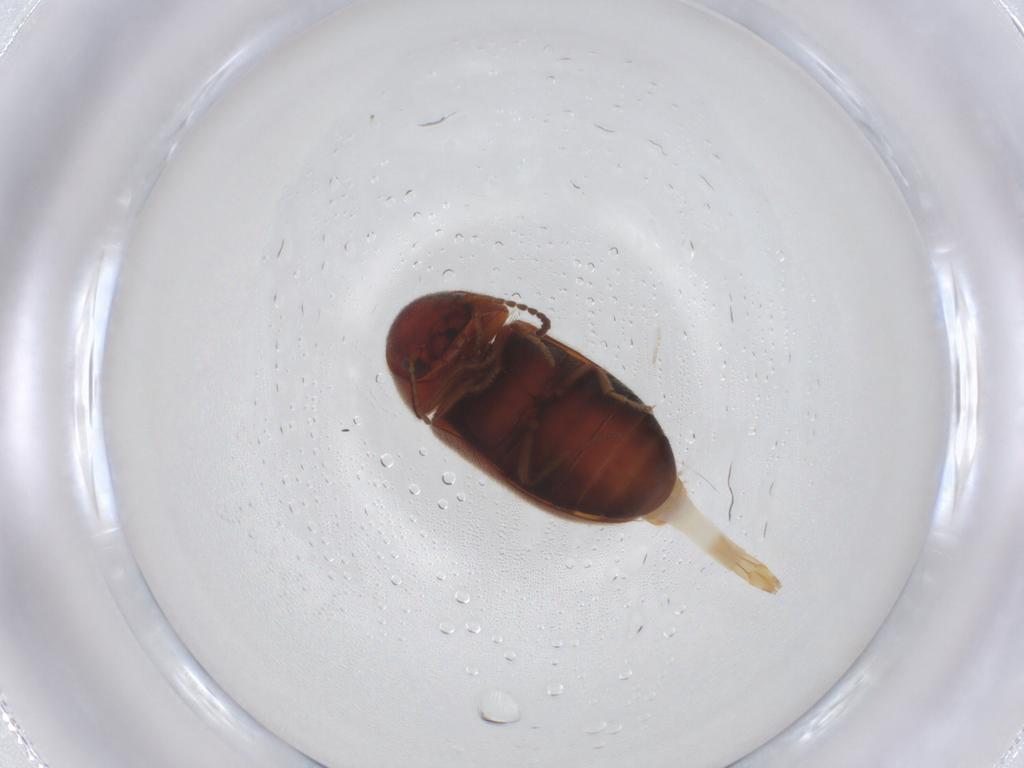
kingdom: Animalia
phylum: Arthropoda
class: Insecta
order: Coleoptera
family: Ptinidae
